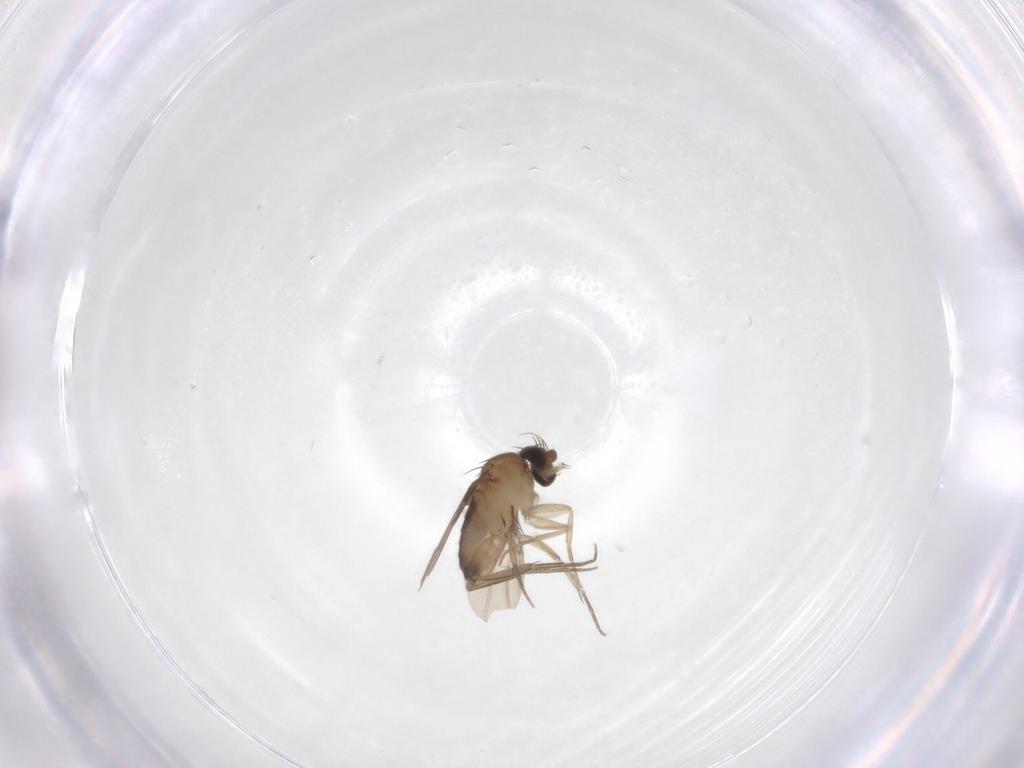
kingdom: Animalia
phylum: Arthropoda
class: Insecta
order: Diptera
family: Phoridae
